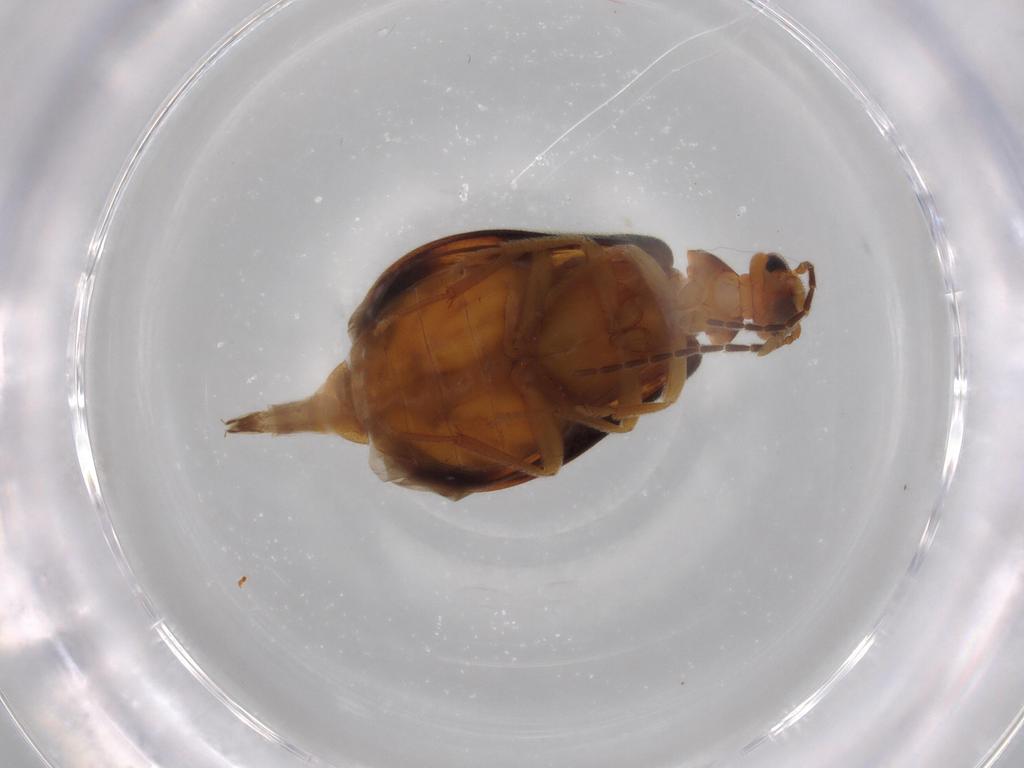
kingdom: Animalia
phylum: Arthropoda
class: Insecta
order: Coleoptera
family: Scraptiidae
